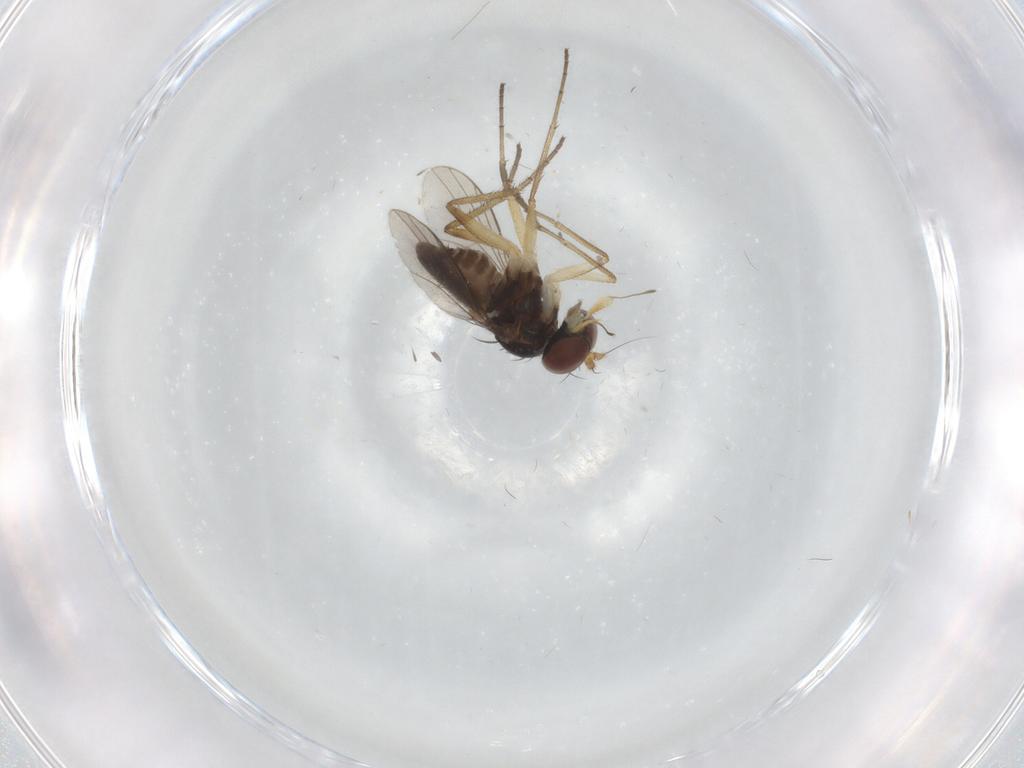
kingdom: Animalia
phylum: Arthropoda
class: Insecta
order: Diptera
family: Dolichopodidae
